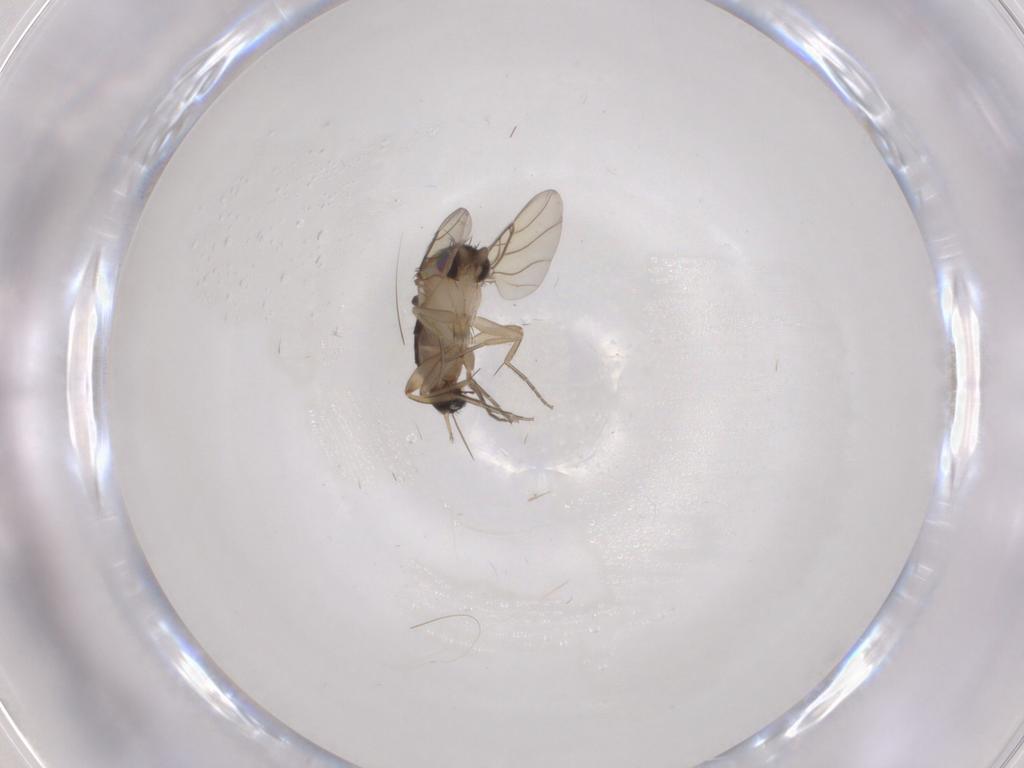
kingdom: Animalia
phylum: Arthropoda
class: Insecta
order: Diptera
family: Phoridae
